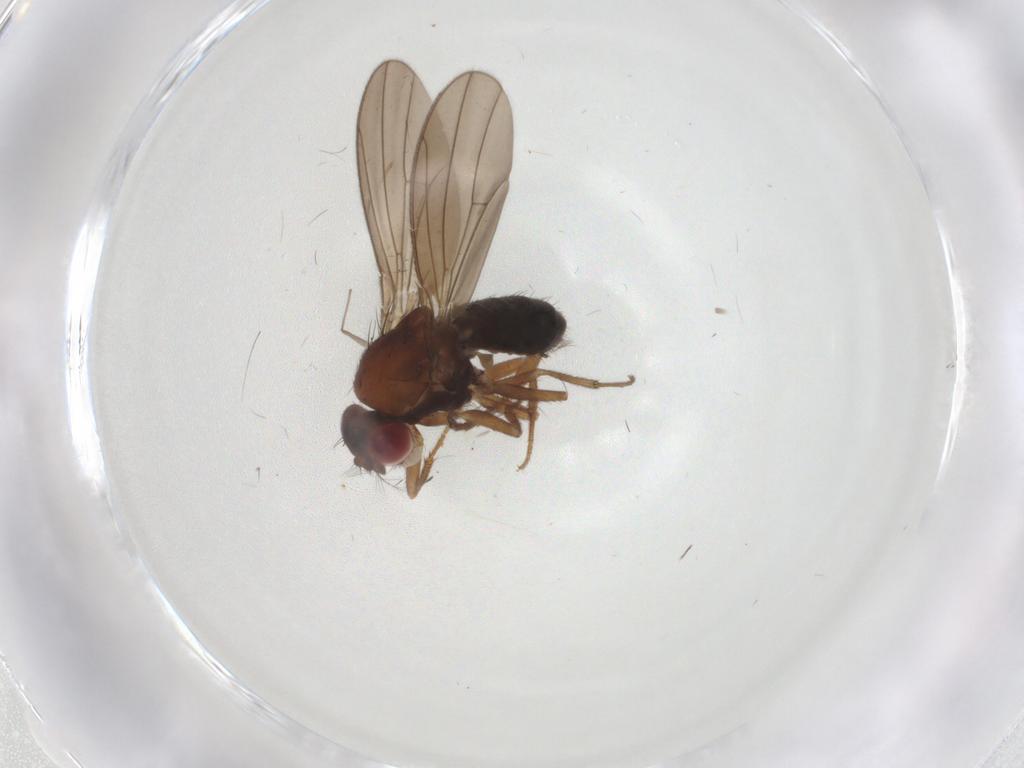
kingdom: Animalia
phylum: Arthropoda
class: Insecta
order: Diptera
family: Drosophilidae
